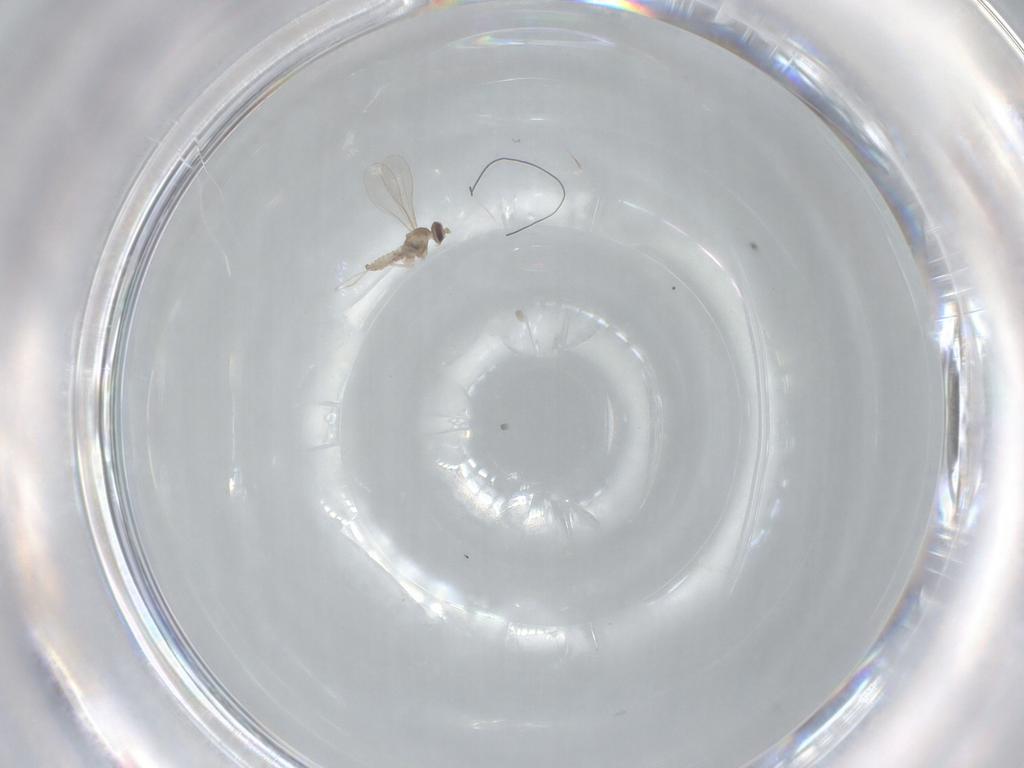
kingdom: Animalia
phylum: Arthropoda
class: Insecta
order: Diptera
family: Cecidomyiidae
